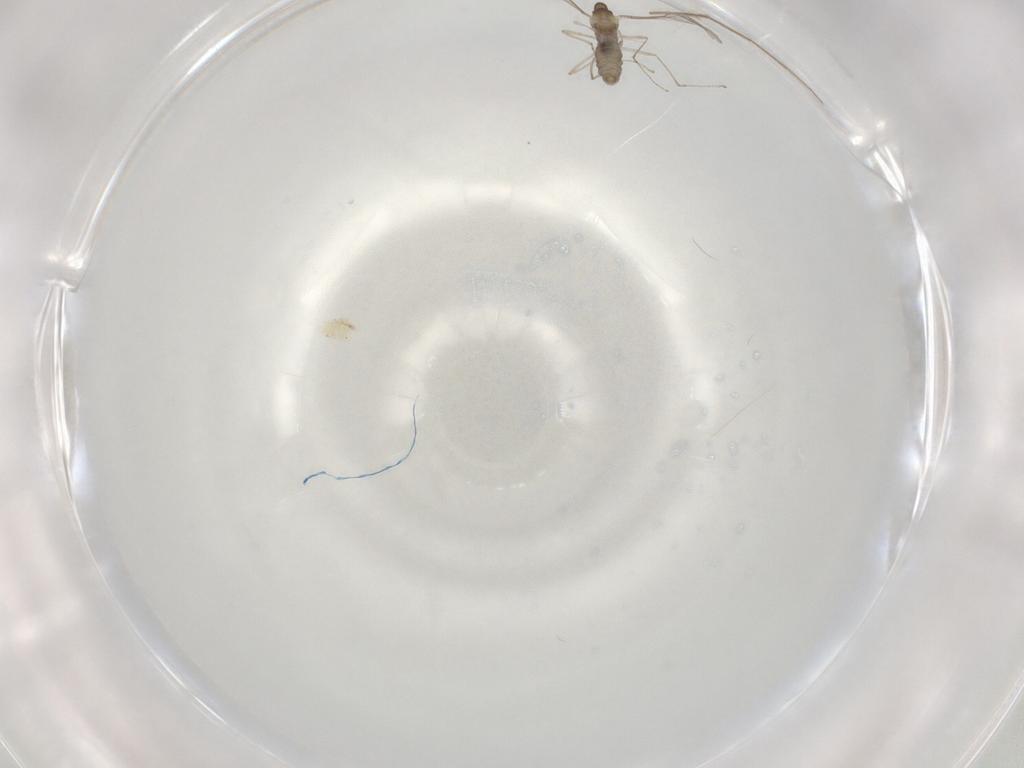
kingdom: Animalia
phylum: Arthropoda
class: Insecta
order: Diptera
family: Cecidomyiidae
